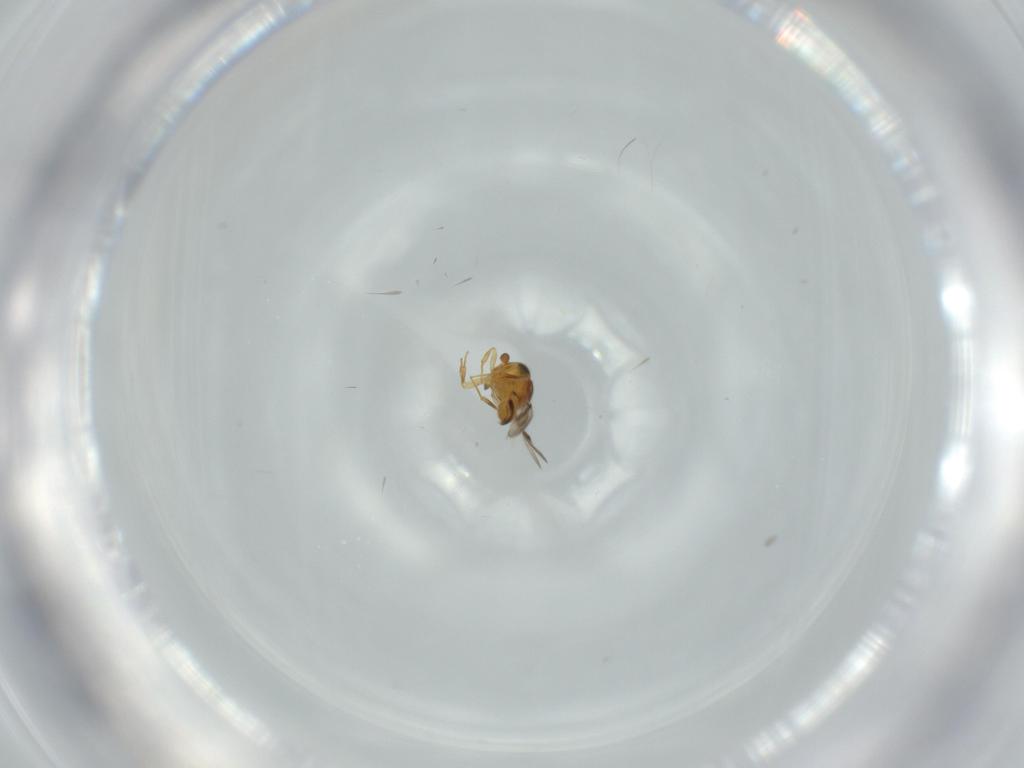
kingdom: Animalia
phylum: Arthropoda
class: Insecta
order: Hymenoptera
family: Scelionidae
